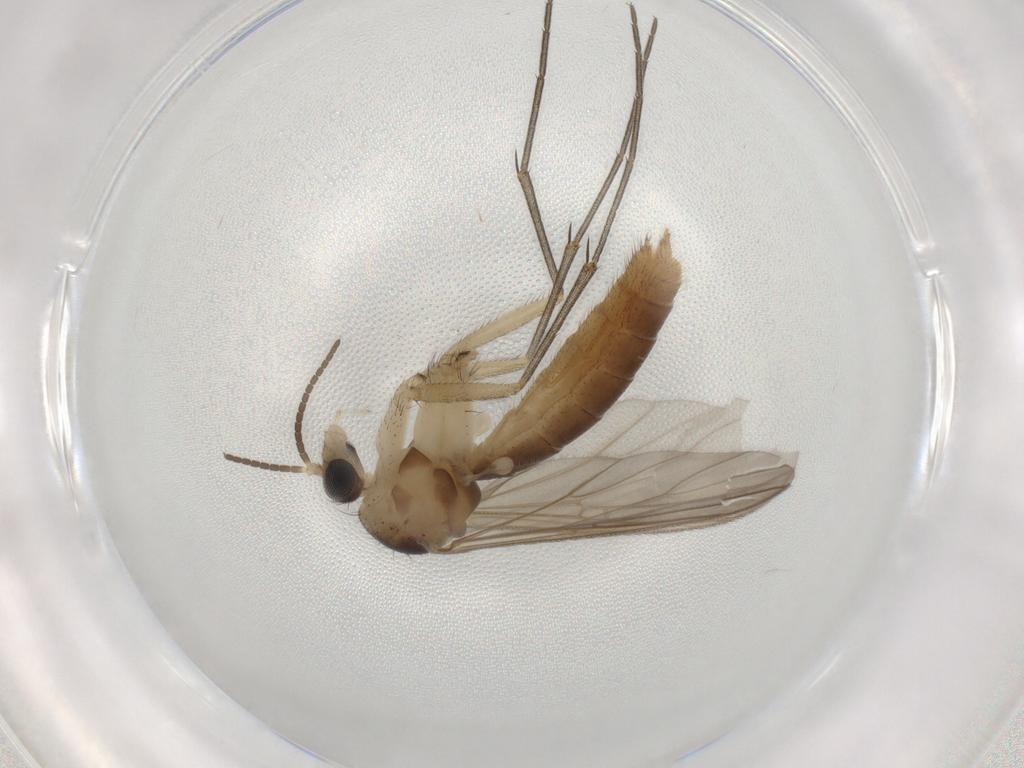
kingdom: Animalia
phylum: Arthropoda
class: Insecta
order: Diptera
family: Mycetophilidae
